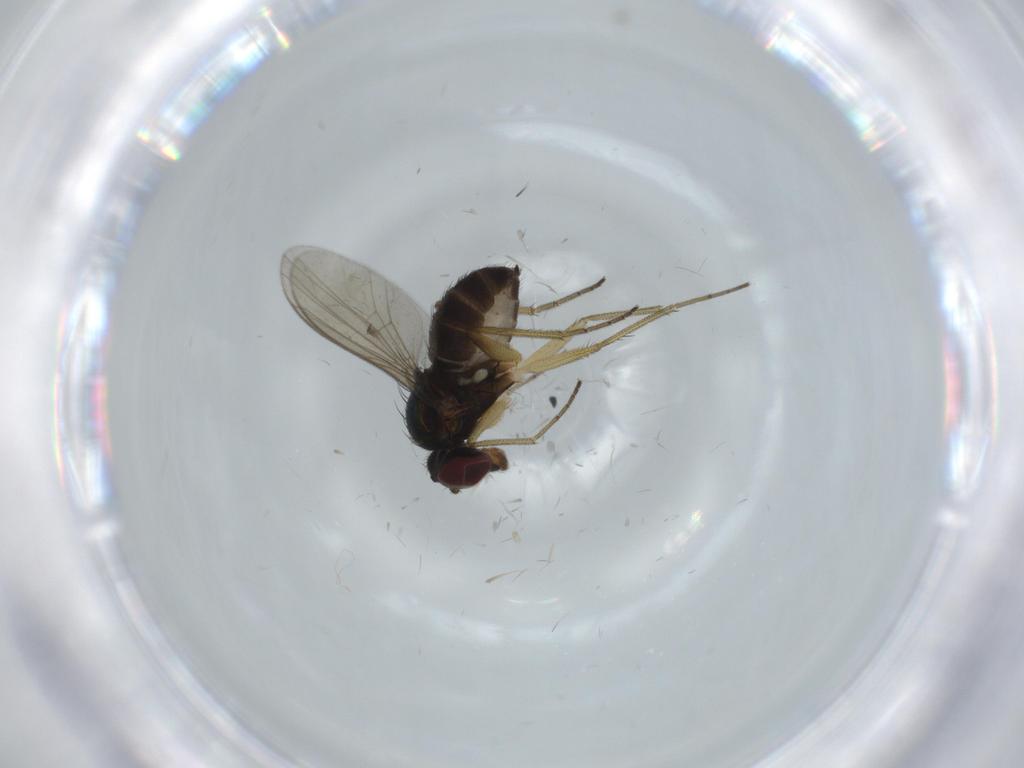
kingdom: Animalia
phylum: Arthropoda
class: Insecta
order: Diptera
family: Dolichopodidae
